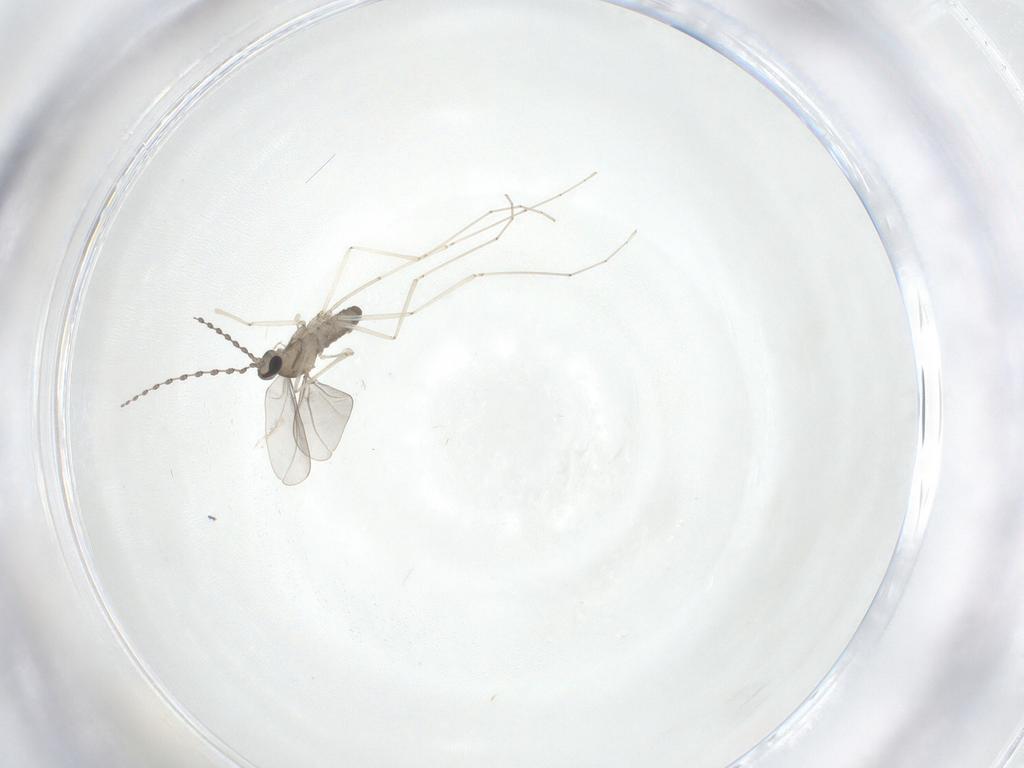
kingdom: Animalia
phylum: Arthropoda
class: Insecta
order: Diptera
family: Cecidomyiidae
